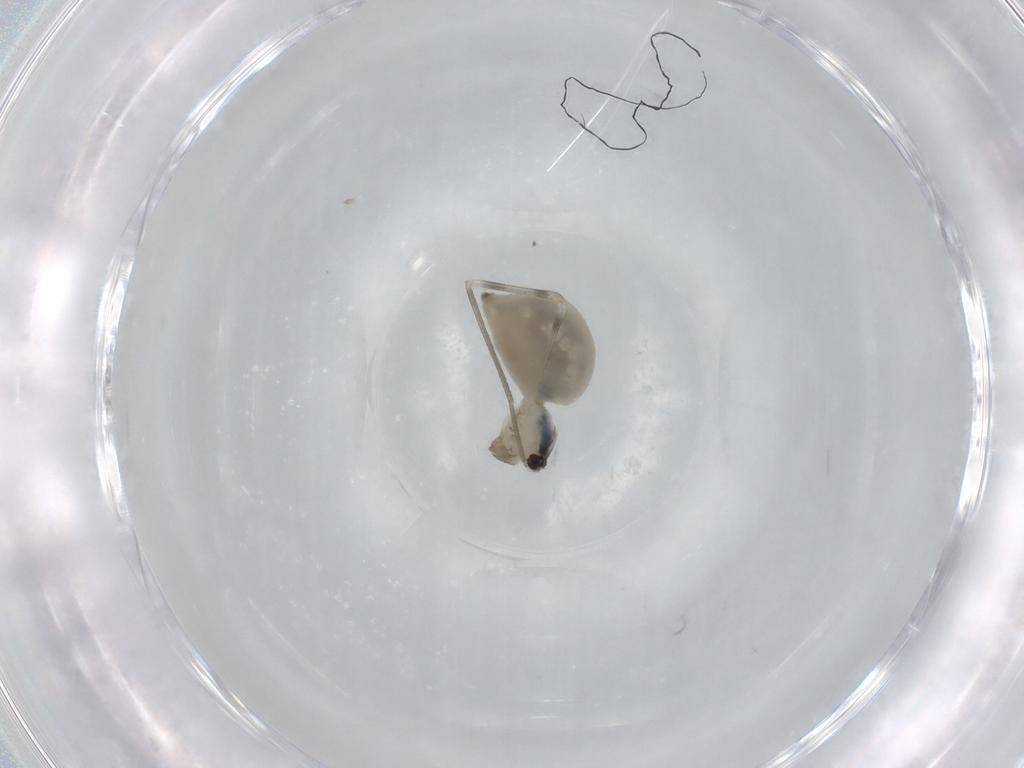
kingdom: Animalia
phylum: Arthropoda
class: Arachnida
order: Araneae
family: Pholcidae
